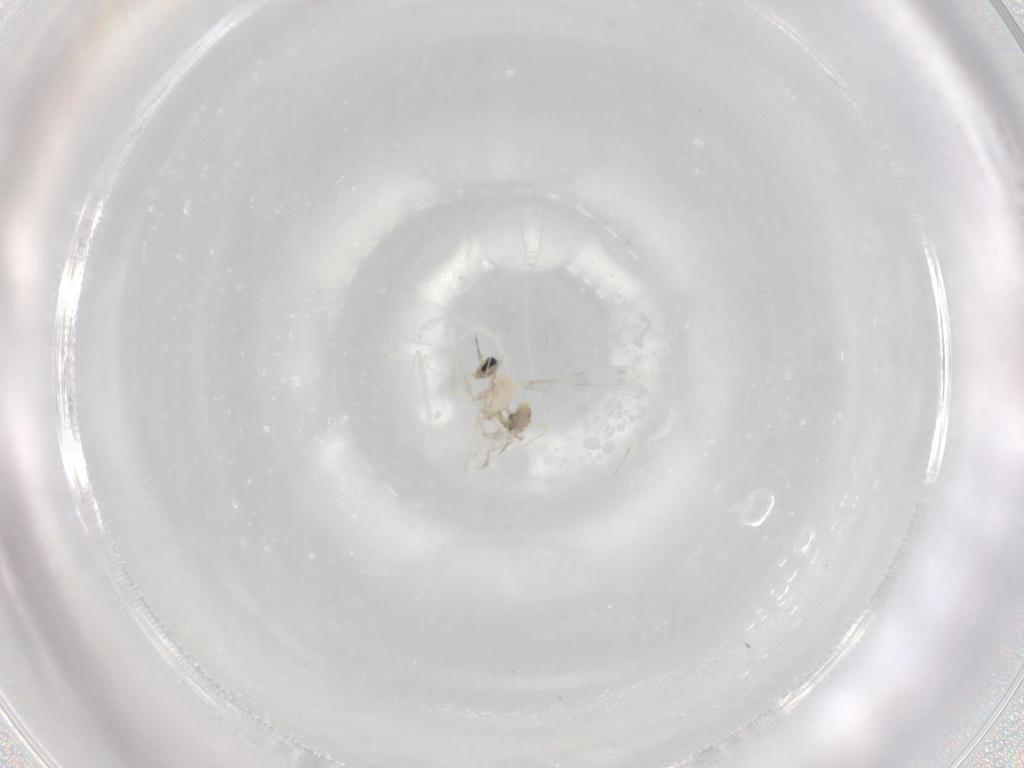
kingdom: Animalia
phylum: Arthropoda
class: Insecta
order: Diptera
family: Cecidomyiidae
